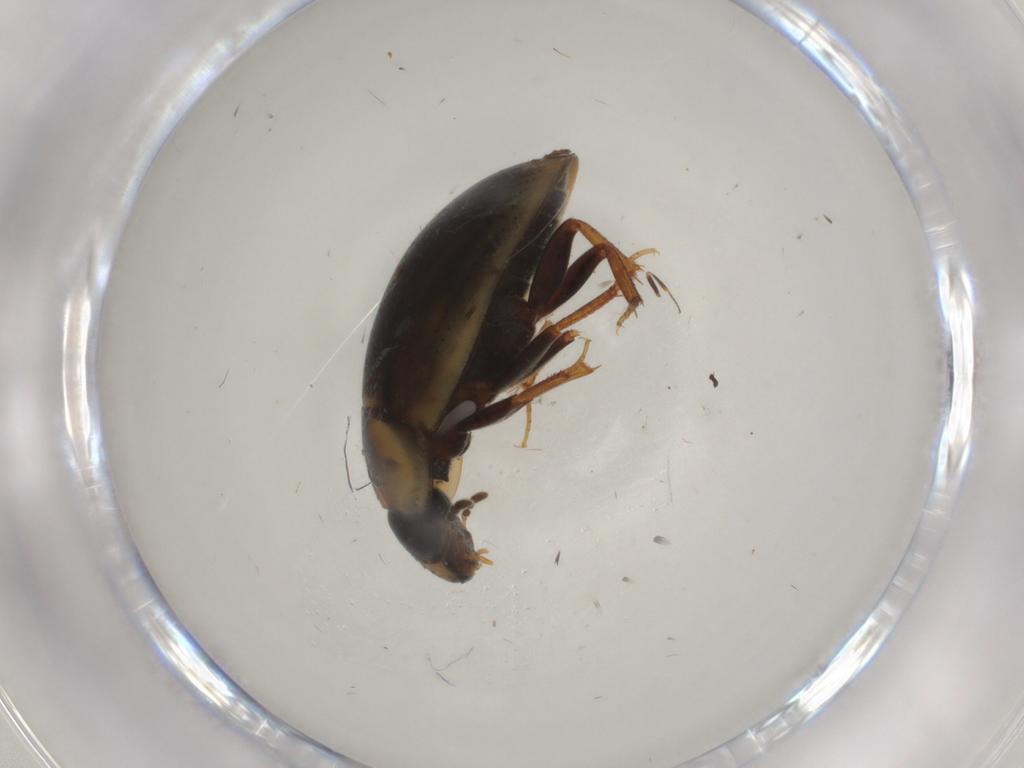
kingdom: Animalia
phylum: Arthropoda
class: Insecta
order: Coleoptera
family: Hydrophilidae
